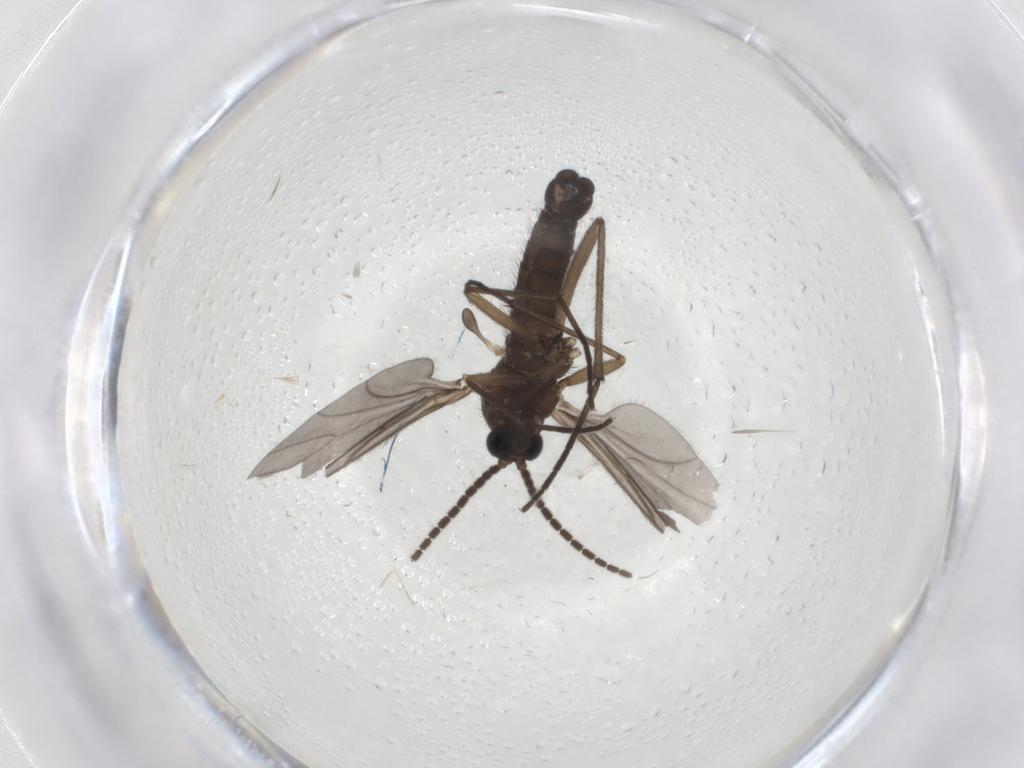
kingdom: Animalia
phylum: Arthropoda
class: Insecta
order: Diptera
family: Sciaridae
